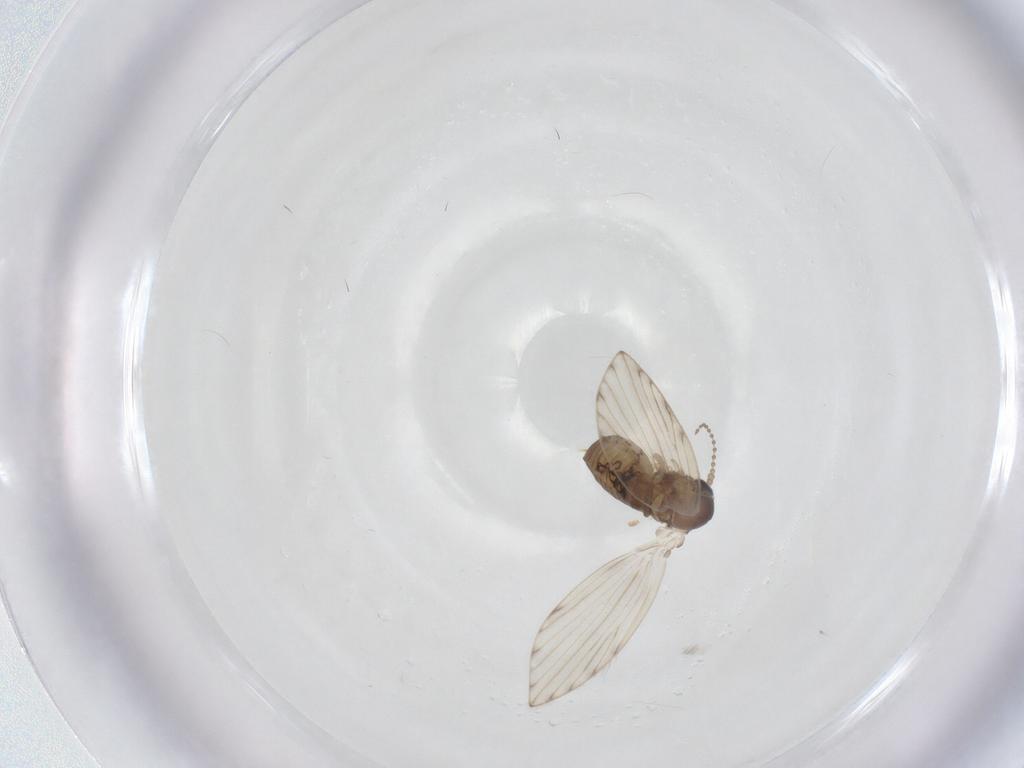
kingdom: Animalia
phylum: Arthropoda
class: Insecta
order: Diptera
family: Psychodidae
